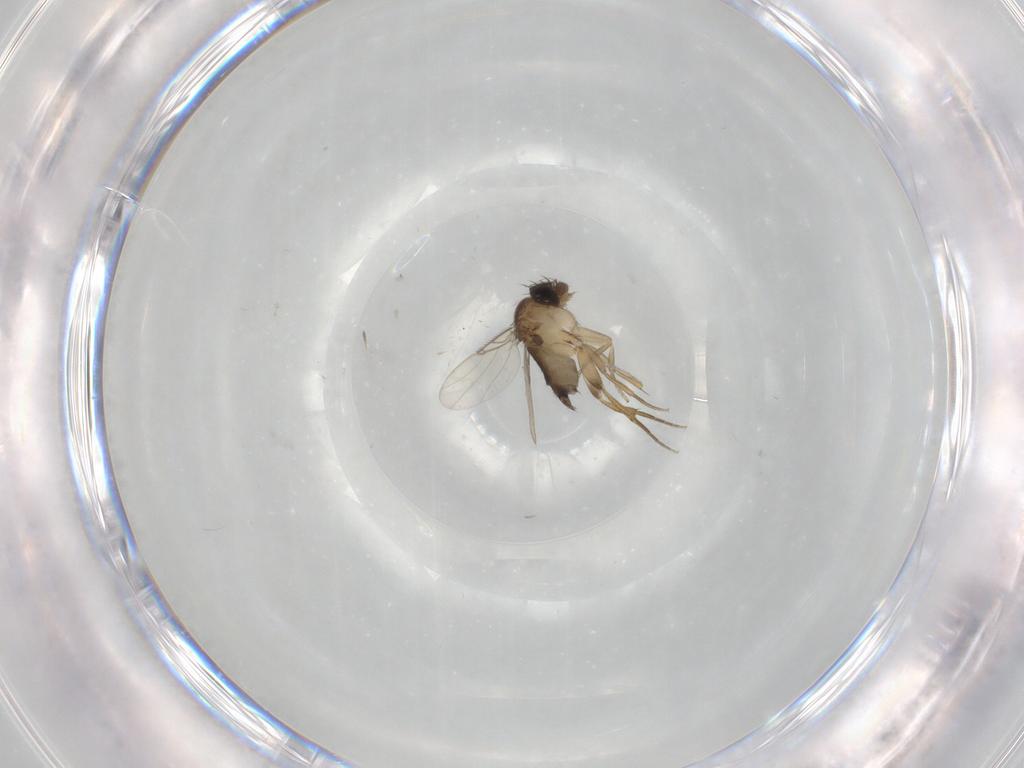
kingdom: Animalia
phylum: Arthropoda
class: Insecta
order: Diptera
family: Phoridae
